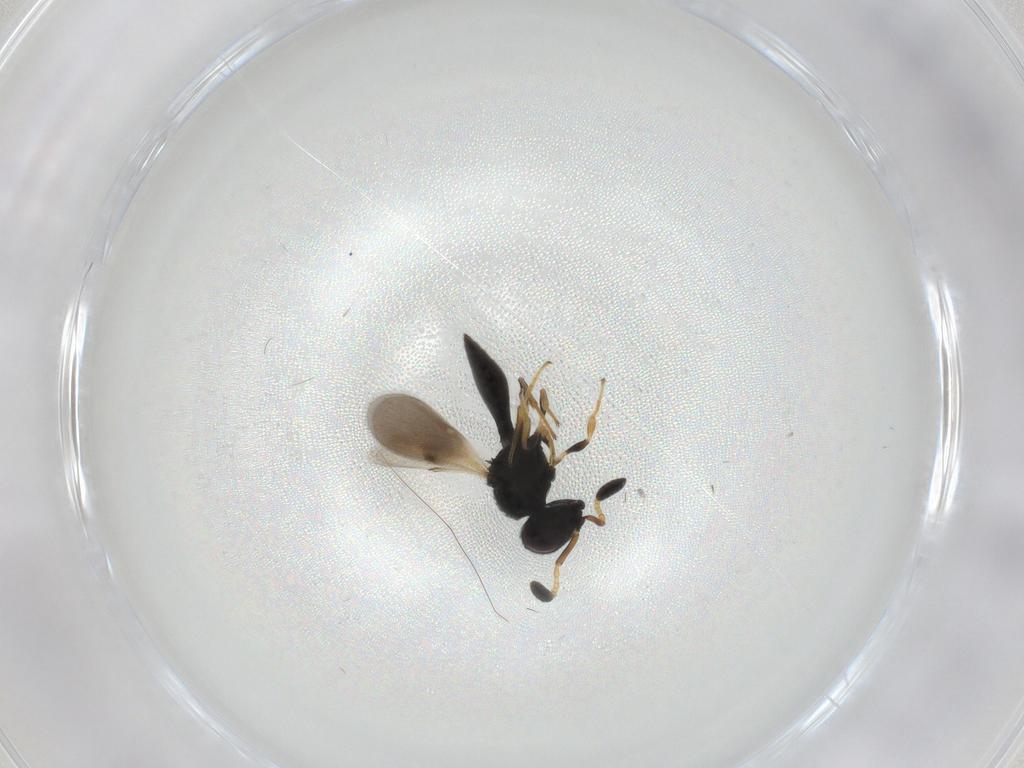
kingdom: Animalia
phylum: Arthropoda
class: Insecta
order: Hymenoptera
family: Scelionidae
